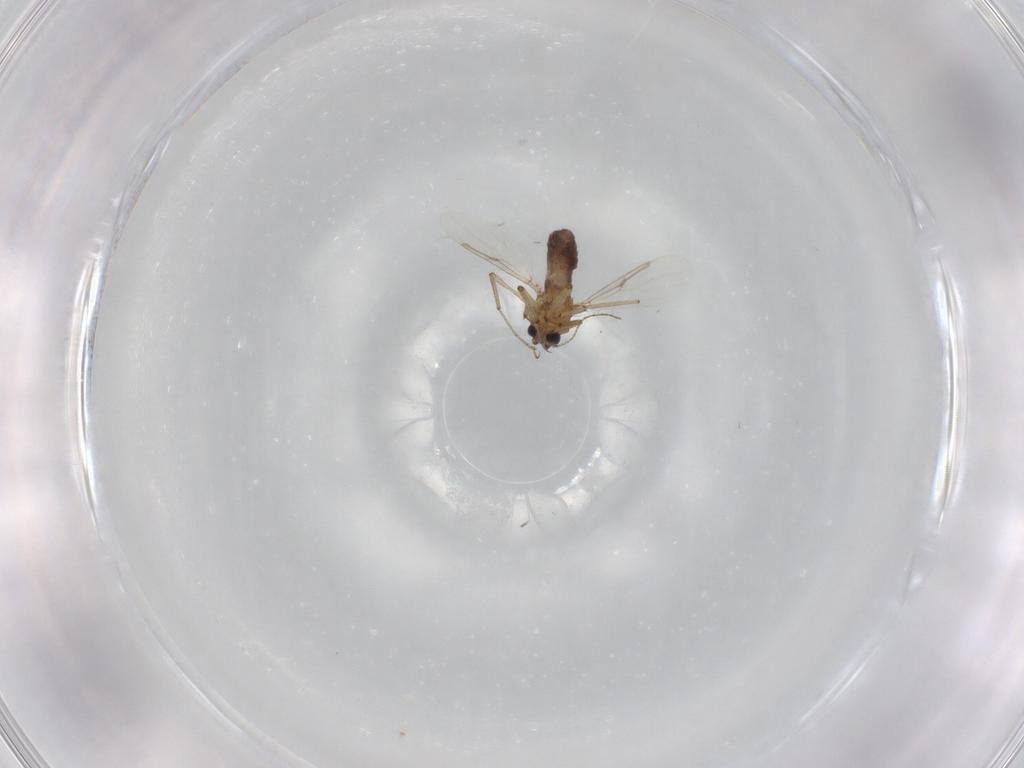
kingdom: Animalia
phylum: Arthropoda
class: Insecta
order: Diptera
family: Ceratopogonidae
